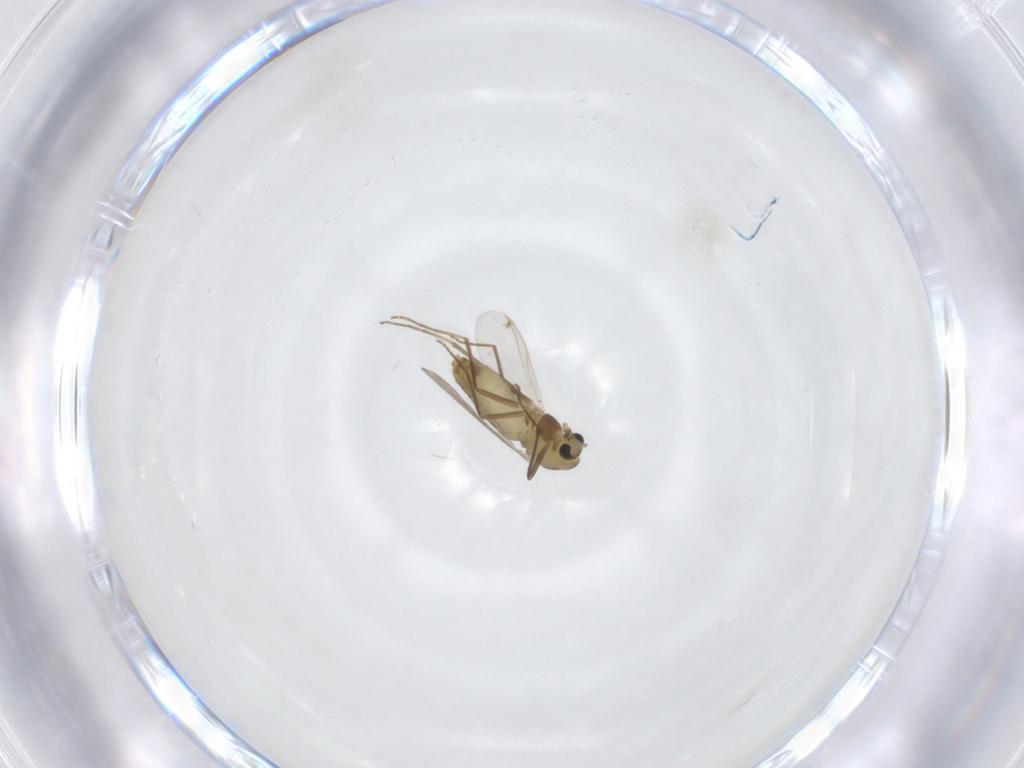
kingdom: Animalia
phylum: Arthropoda
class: Insecta
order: Diptera
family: Chironomidae
